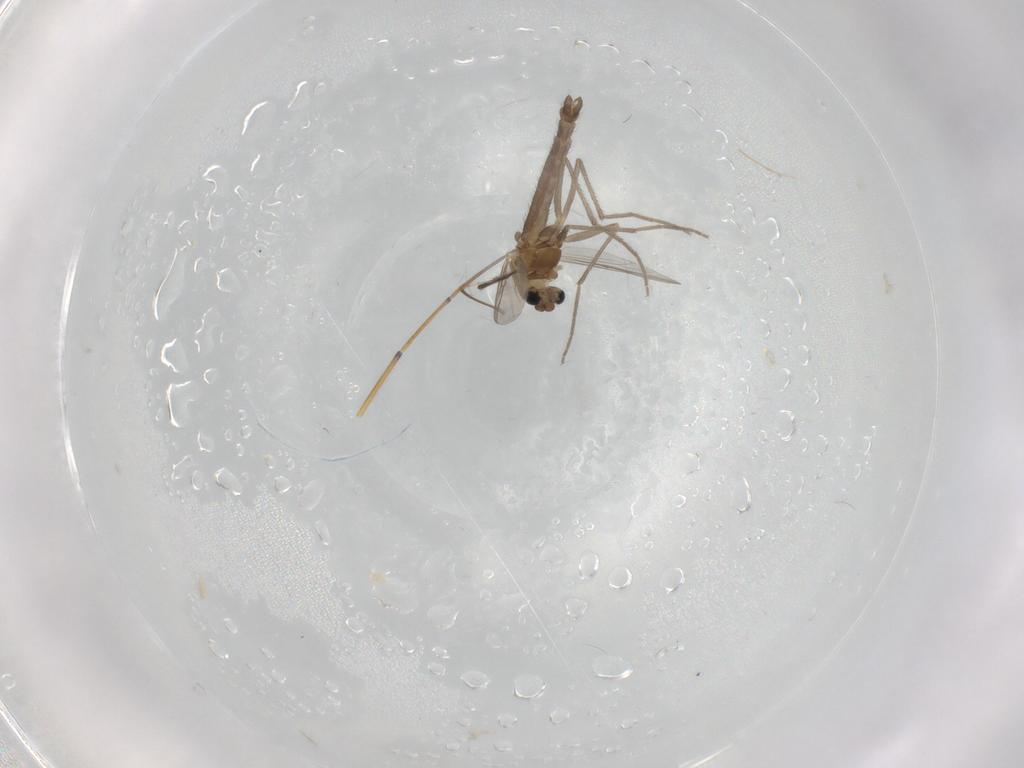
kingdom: Animalia
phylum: Arthropoda
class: Insecta
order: Diptera
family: Chironomidae
